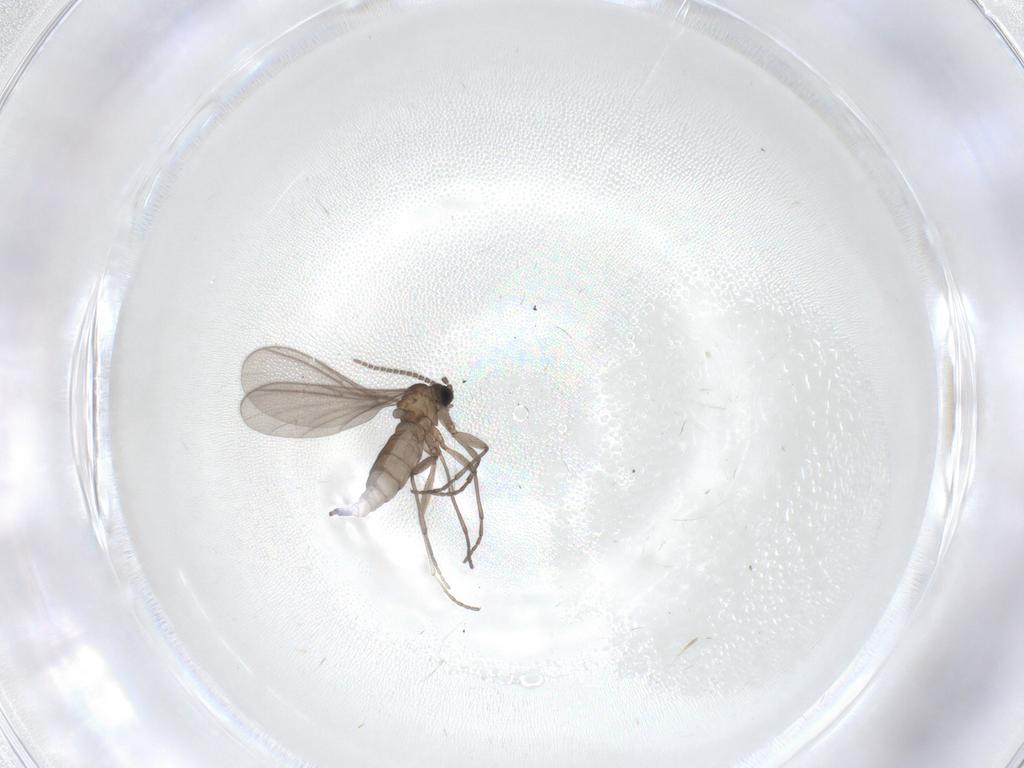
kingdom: Animalia
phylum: Arthropoda
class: Insecta
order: Diptera
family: Sciaridae
